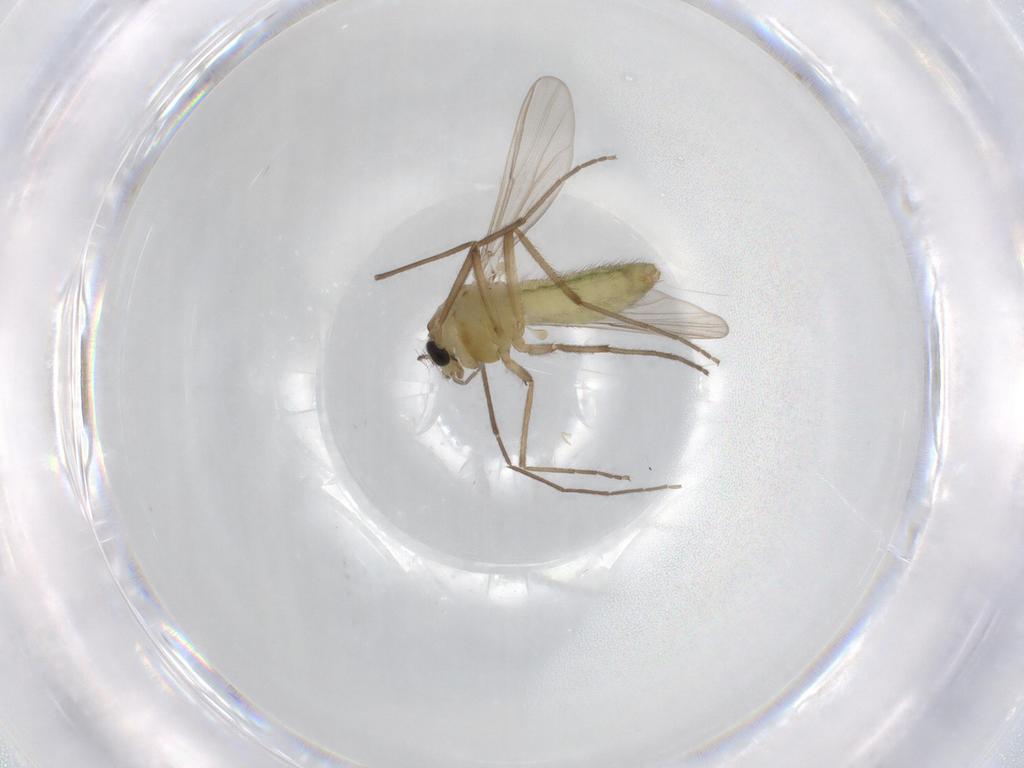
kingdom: Animalia
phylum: Arthropoda
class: Insecta
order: Diptera
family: Chironomidae
